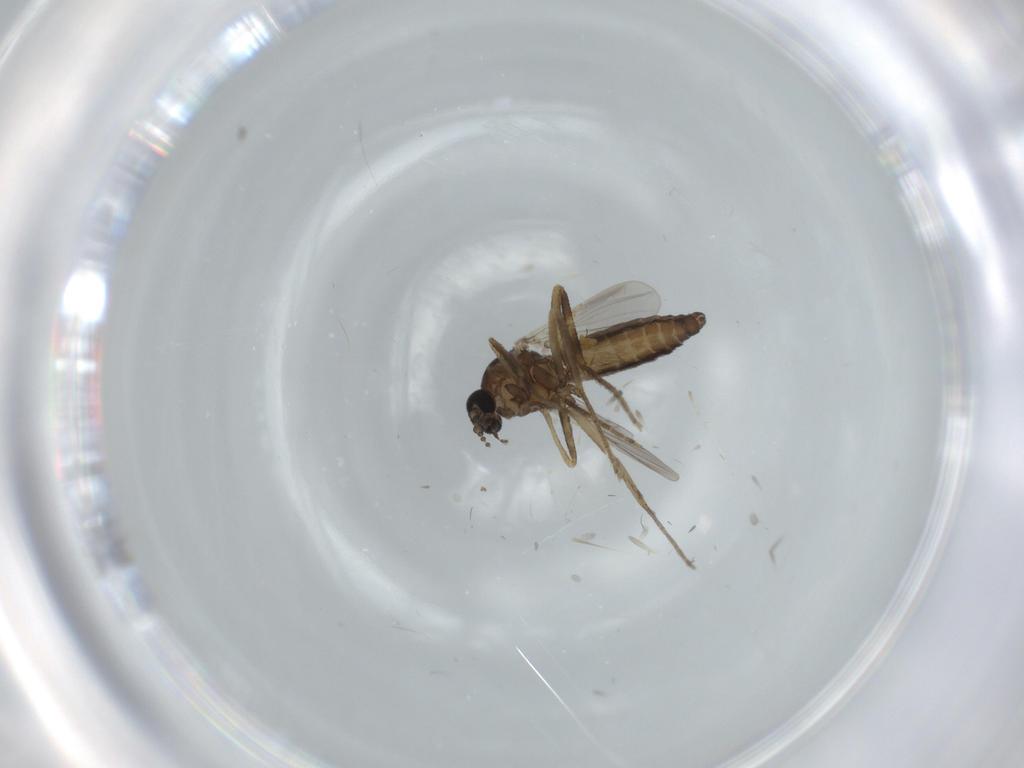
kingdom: Animalia
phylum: Arthropoda
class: Insecta
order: Diptera
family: Ceratopogonidae
